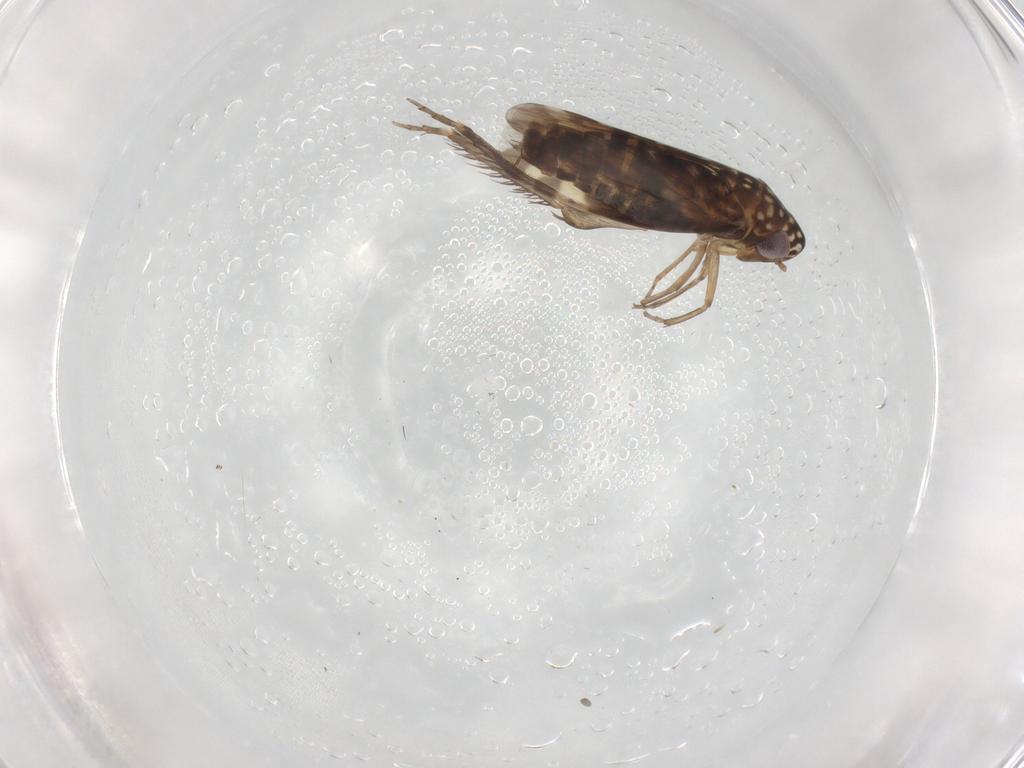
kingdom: Animalia
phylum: Arthropoda
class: Insecta
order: Hemiptera
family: Cicadellidae
